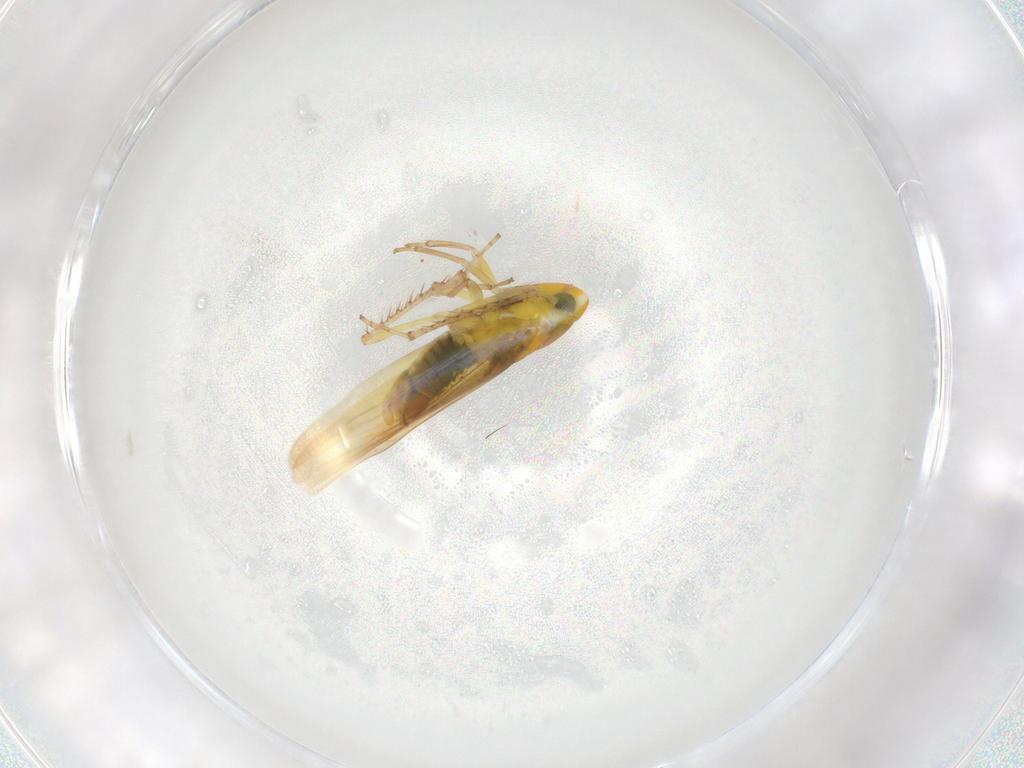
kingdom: Animalia
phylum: Arthropoda
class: Insecta
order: Hemiptera
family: Cicadellidae
